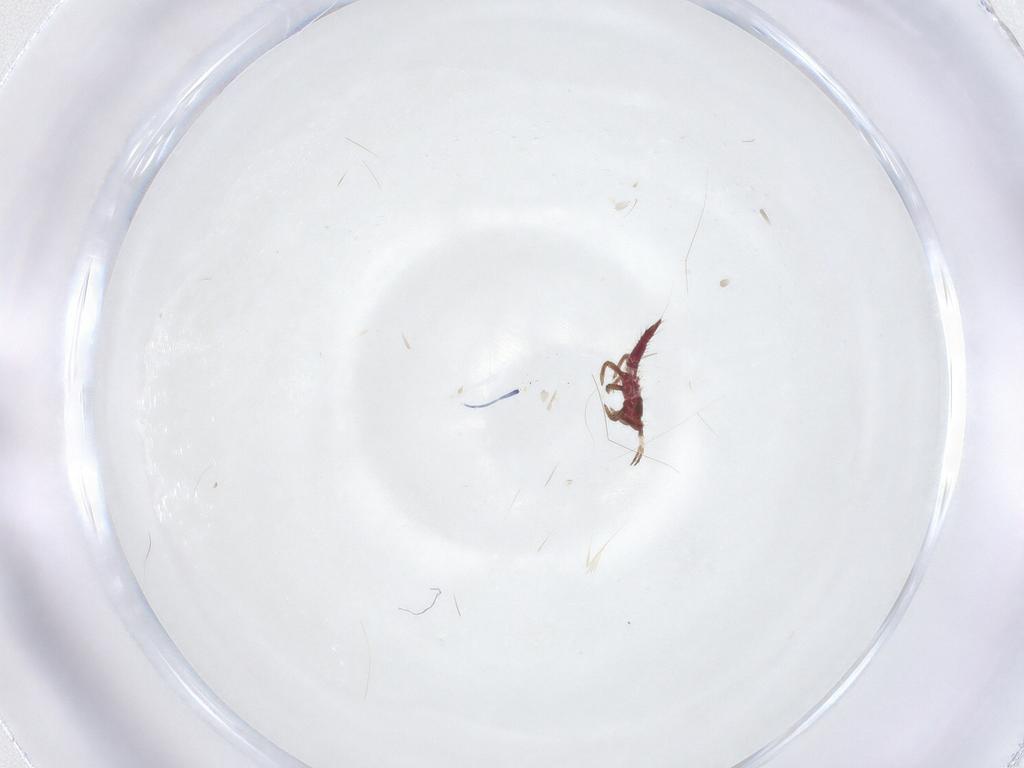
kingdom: Animalia
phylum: Arthropoda
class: Insecta
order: Thysanoptera
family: Phlaeothripidae
